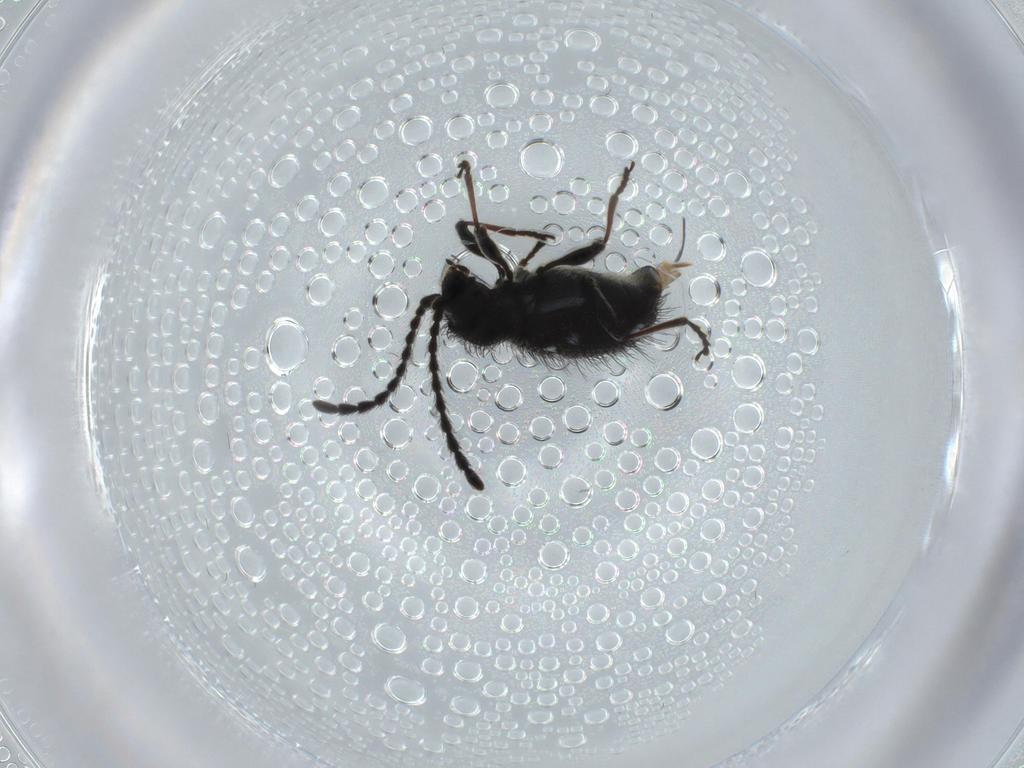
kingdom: Animalia
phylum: Arthropoda
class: Insecta
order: Coleoptera
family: Ptinidae
